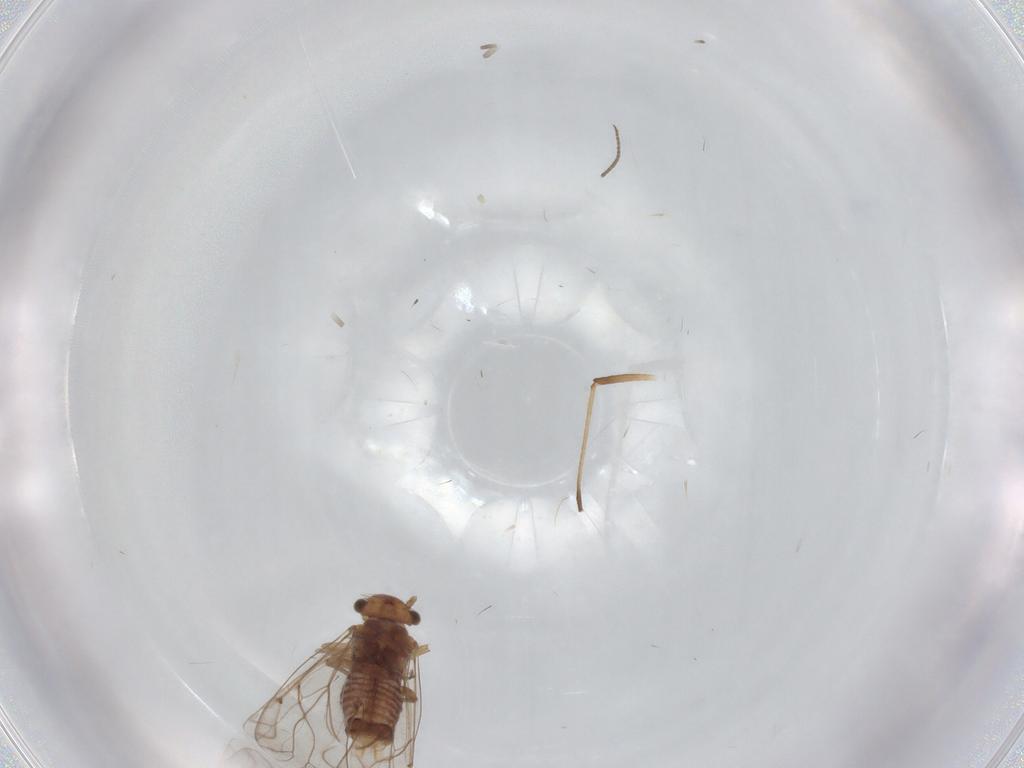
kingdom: Animalia
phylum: Arthropoda
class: Insecta
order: Psocodea
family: Lachesillidae
